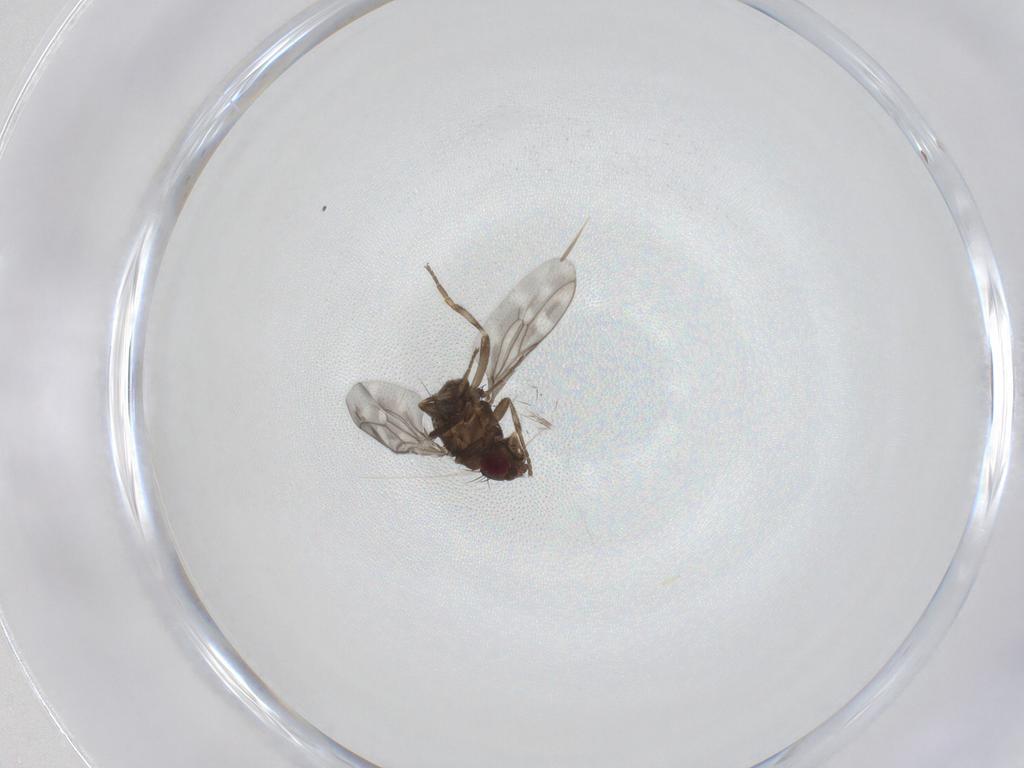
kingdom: Animalia
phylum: Arthropoda
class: Insecta
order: Diptera
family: Sphaeroceridae
